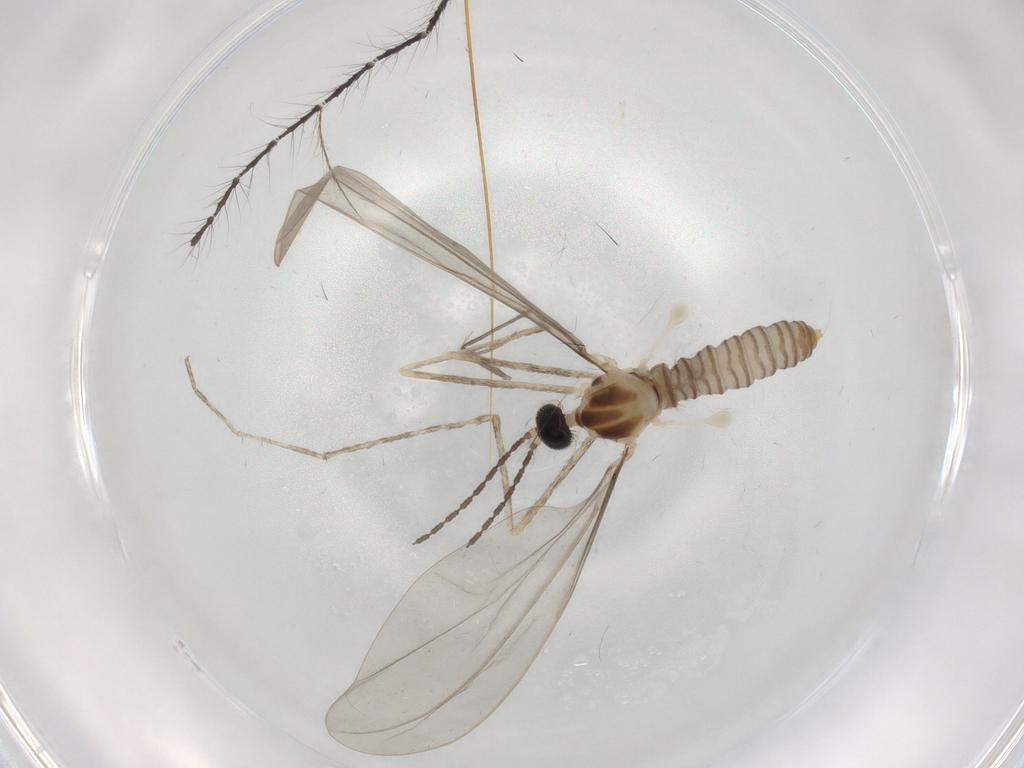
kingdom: Animalia
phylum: Arthropoda
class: Insecta
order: Diptera
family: Cecidomyiidae
